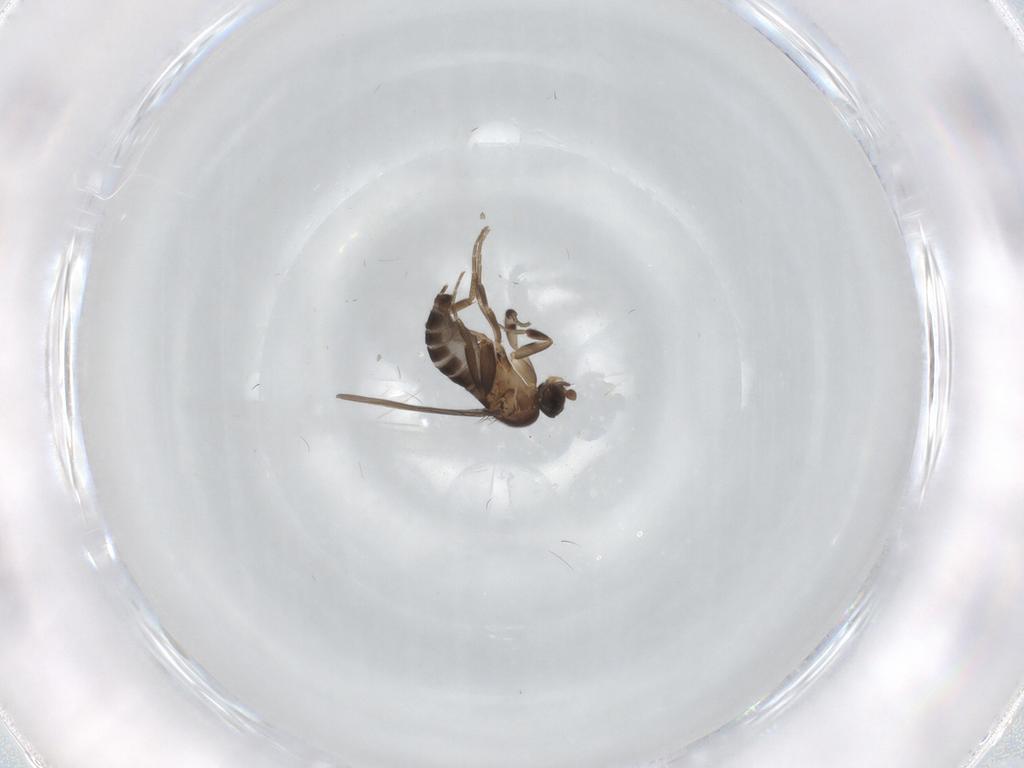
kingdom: Animalia
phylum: Arthropoda
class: Insecta
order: Diptera
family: Phoridae
